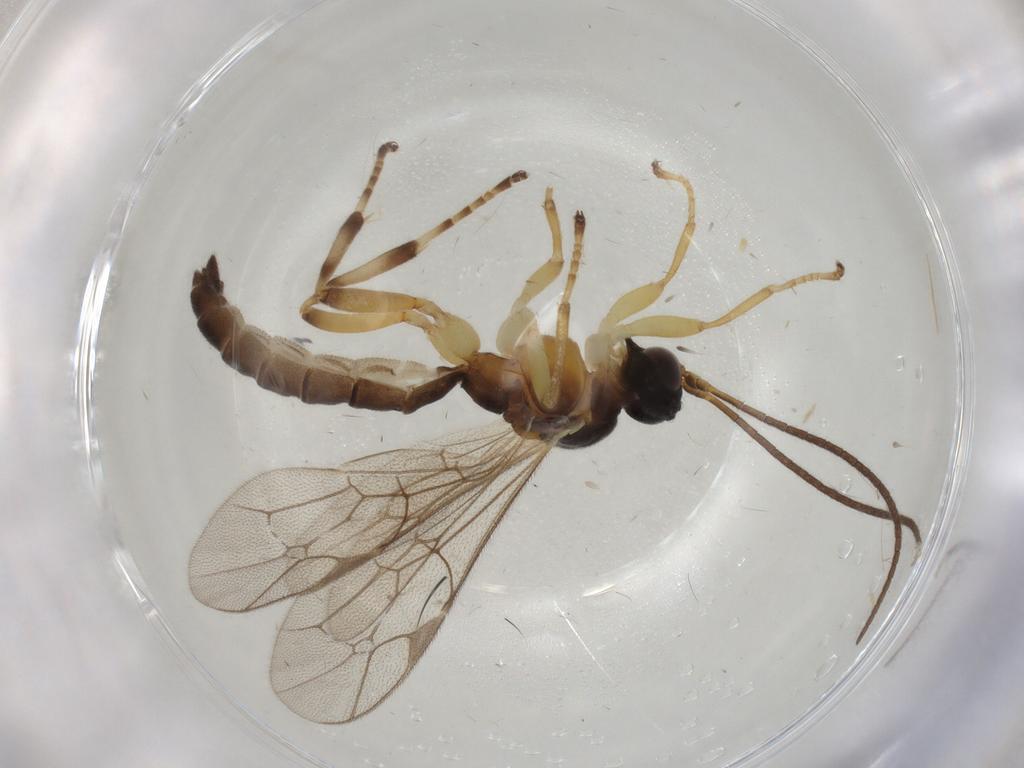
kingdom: Animalia
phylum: Arthropoda
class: Insecta
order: Hymenoptera
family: Ichneumonidae
